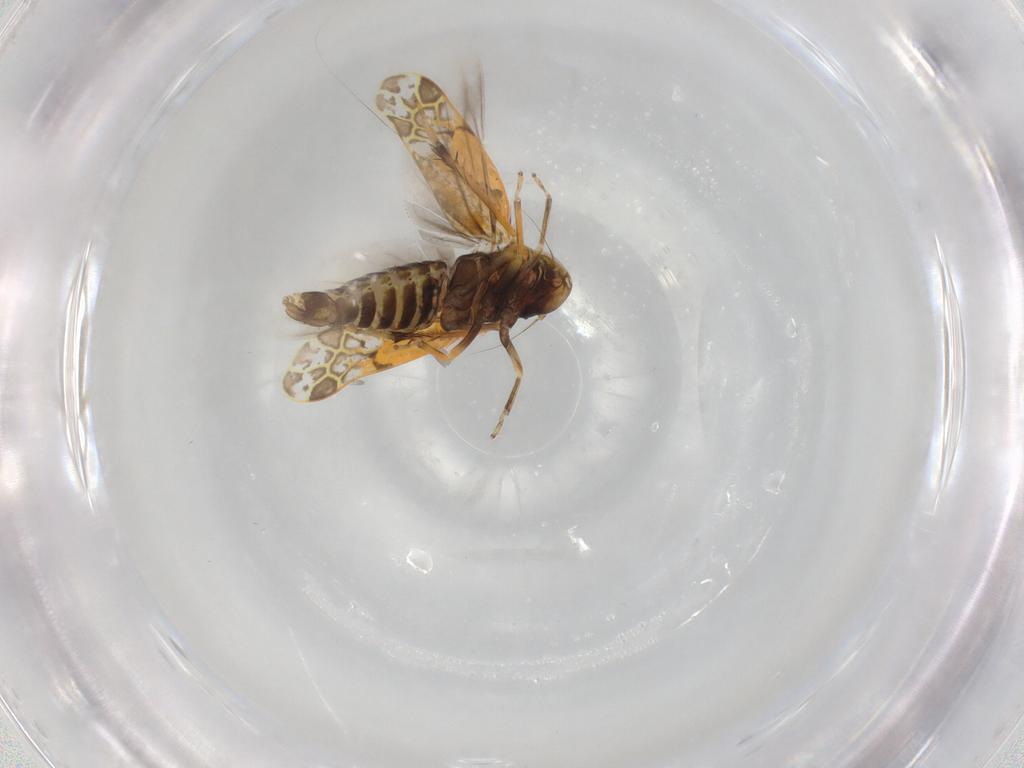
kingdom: Animalia
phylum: Arthropoda
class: Insecta
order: Hemiptera
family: Cicadellidae
